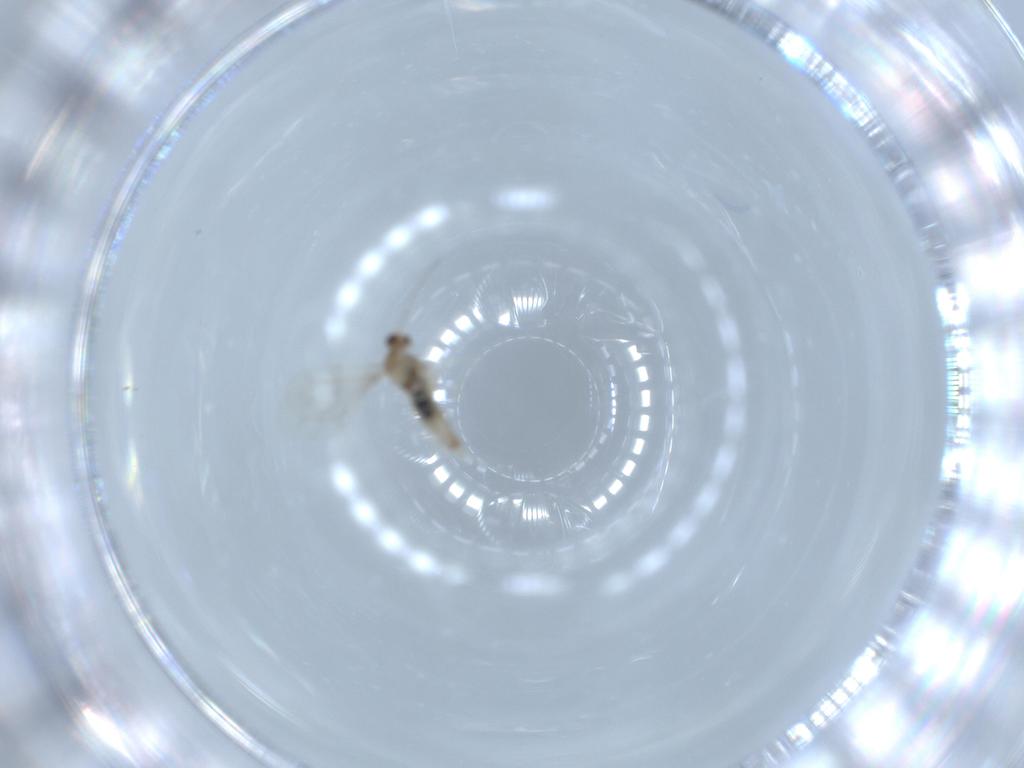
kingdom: Animalia
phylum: Arthropoda
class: Insecta
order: Diptera
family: Cecidomyiidae
